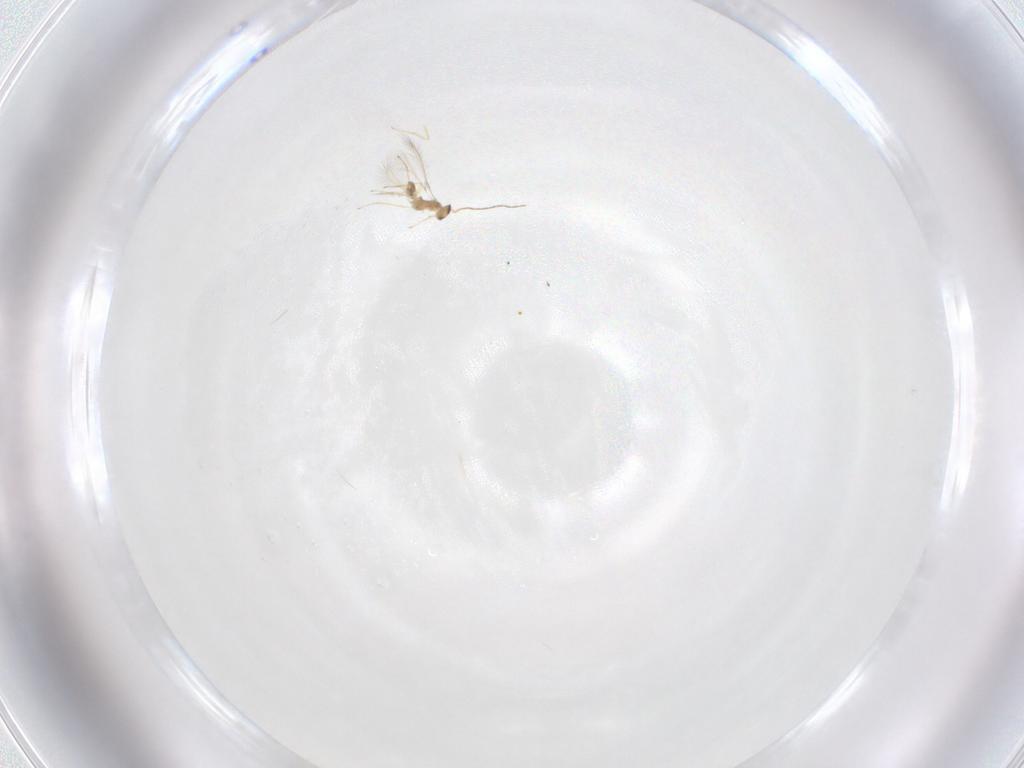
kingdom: Animalia
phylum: Arthropoda
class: Insecta
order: Hymenoptera
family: Mymaridae
